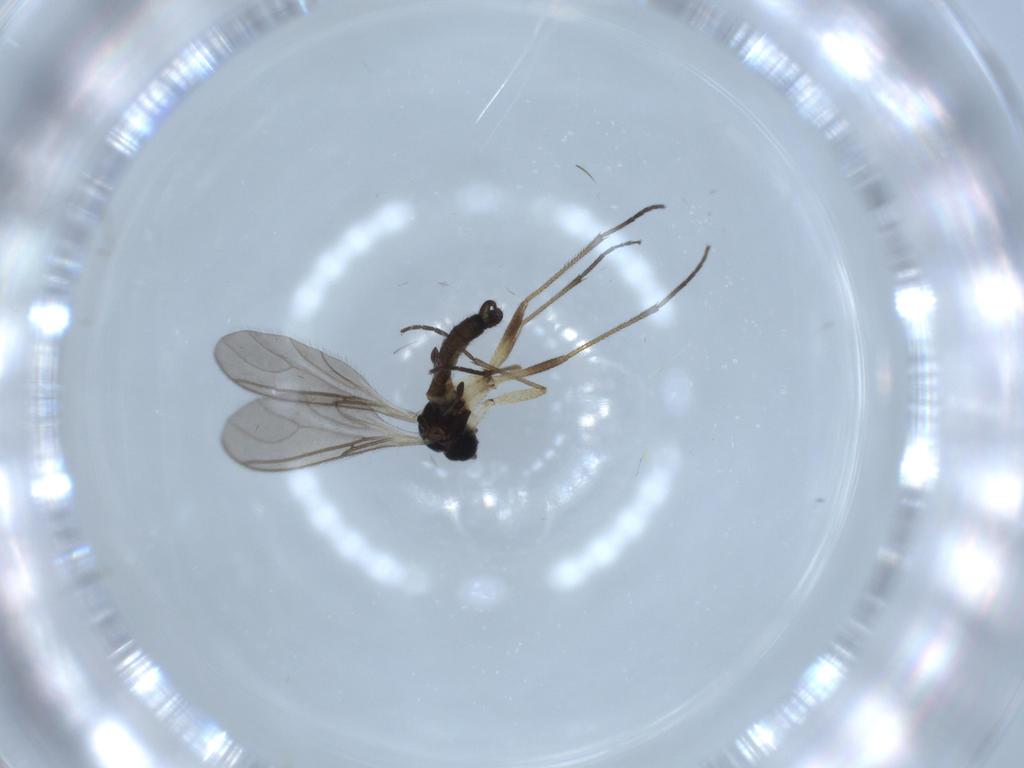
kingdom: Animalia
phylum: Arthropoda
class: Insecta
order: Diptera
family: Sciaridae
